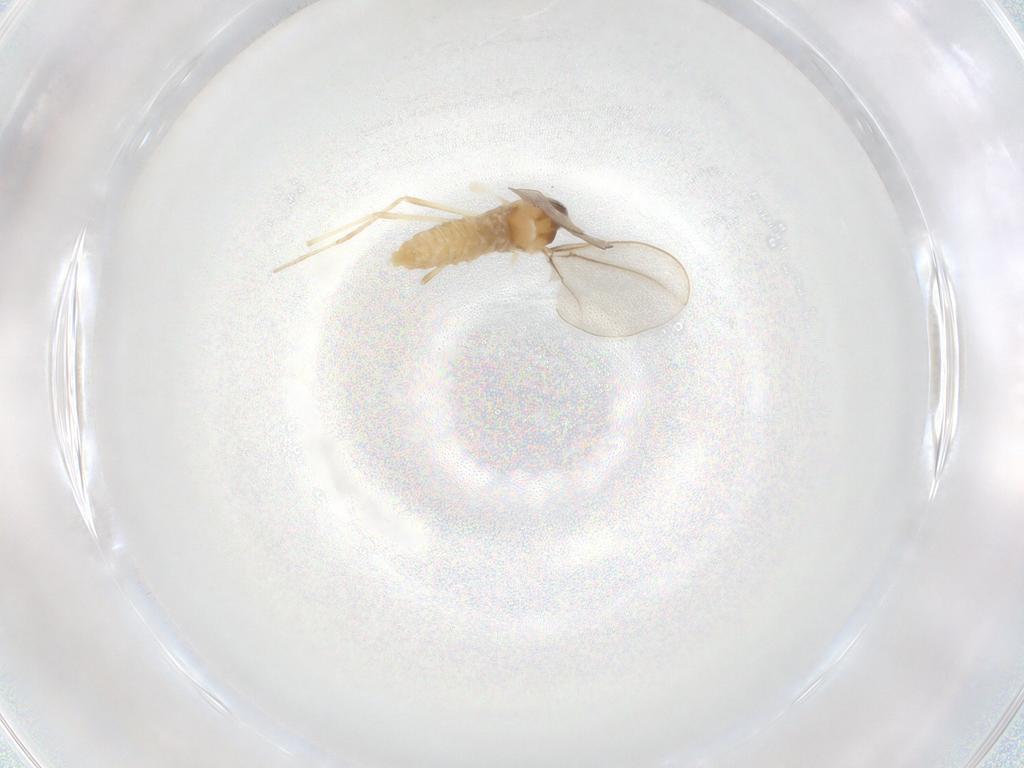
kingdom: Animalia
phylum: Arthropoda
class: Insecta
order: Diptera
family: Cecidomyiidae
